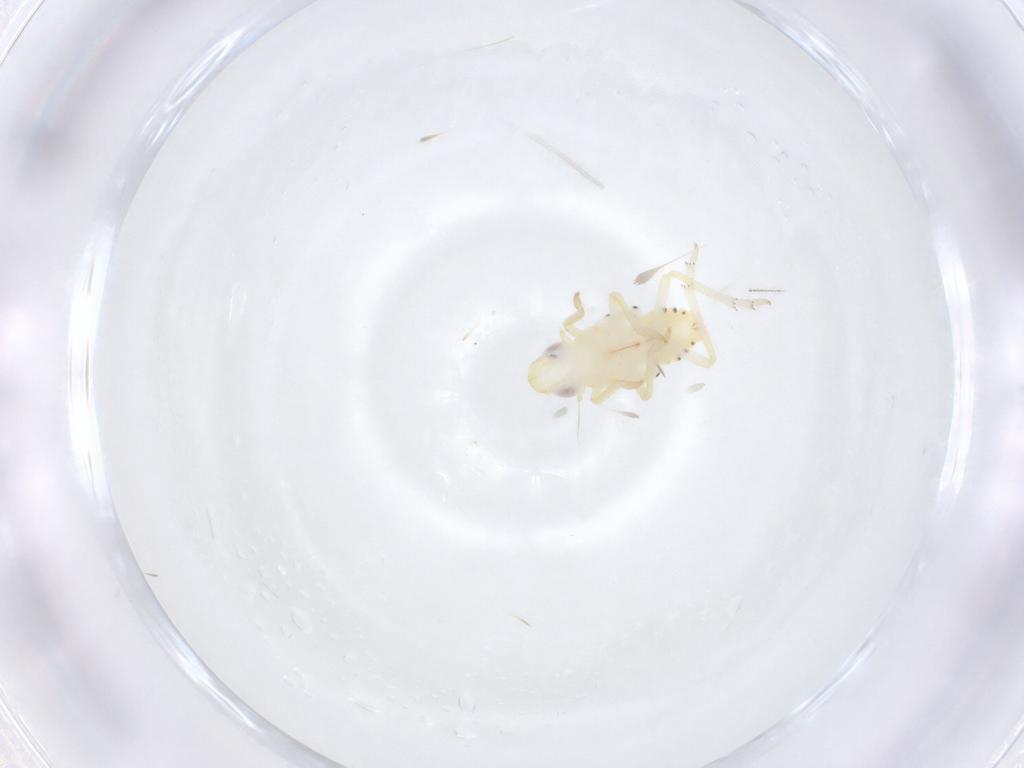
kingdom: Animalia
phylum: Arthropoda
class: Insecta
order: Hemiptera
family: Tropiduchidae
